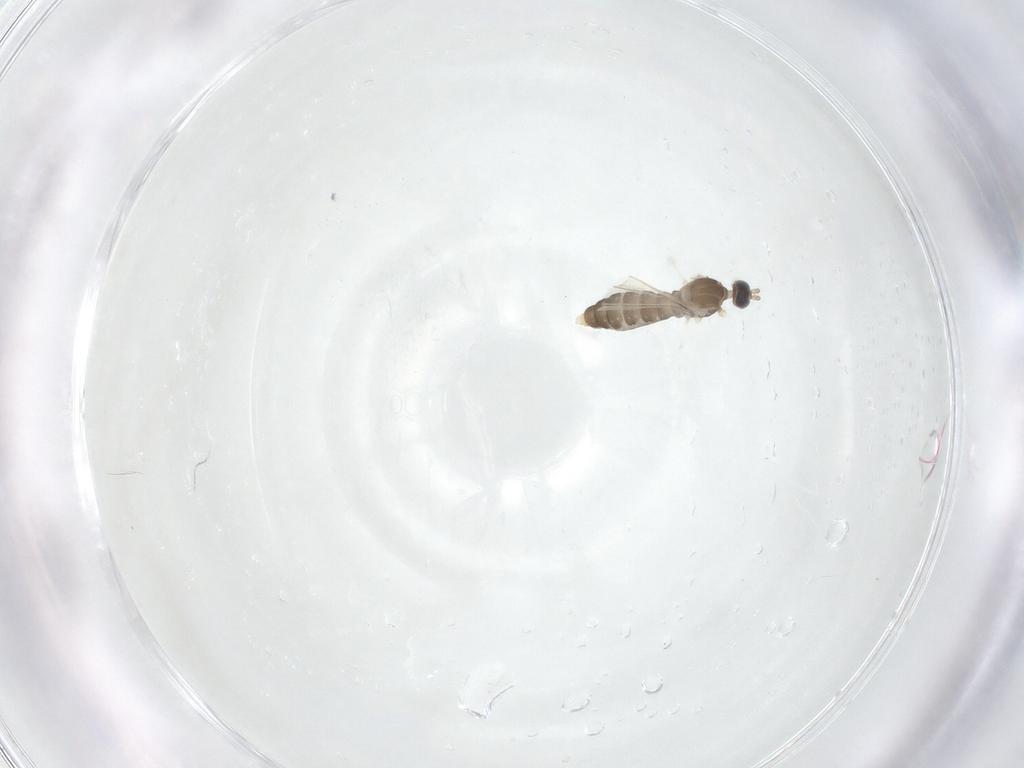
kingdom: Animalia
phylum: Arthropoda
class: Insecta
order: Diptera
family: Cecidomyiidae
